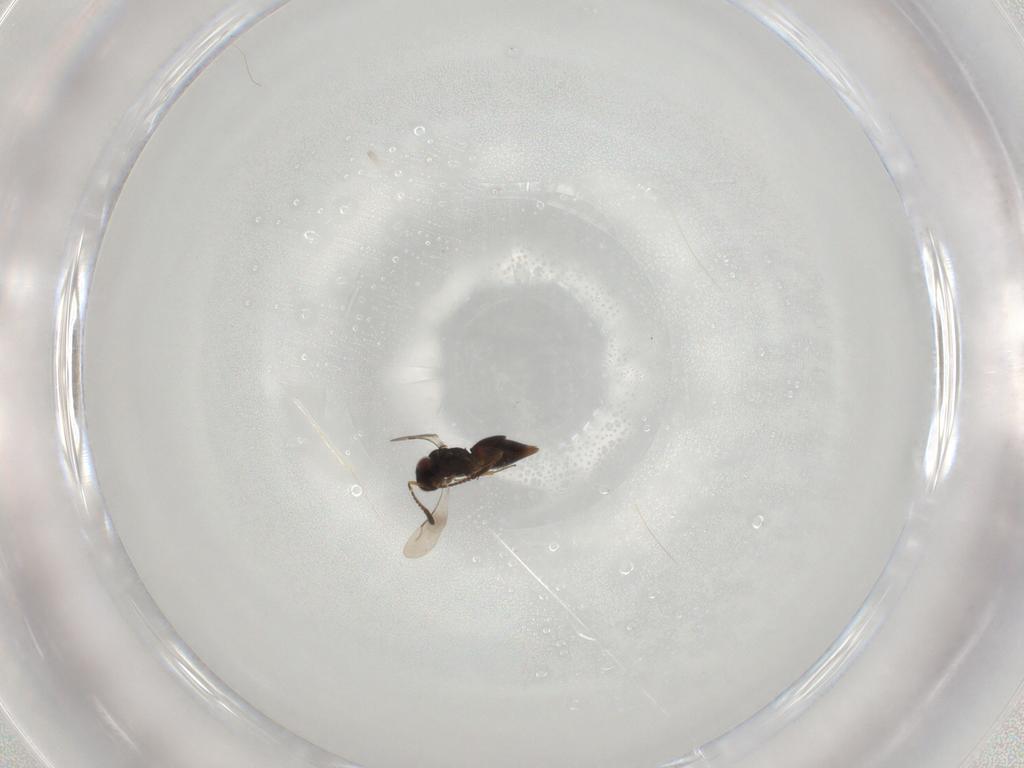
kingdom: Animalia
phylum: Arthropoda
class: Insecta
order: Hymenoptera
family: Ceraphronidae
